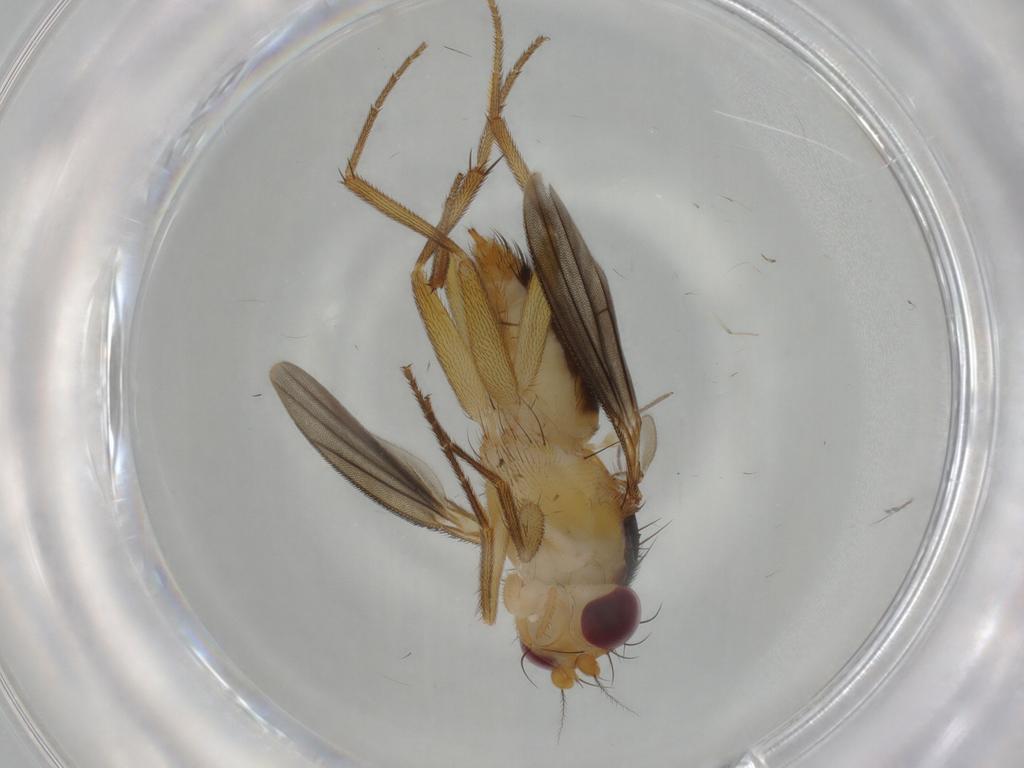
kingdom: Animalia
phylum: Arthropoda
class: Insecta
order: Diptera
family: Clusiidae
